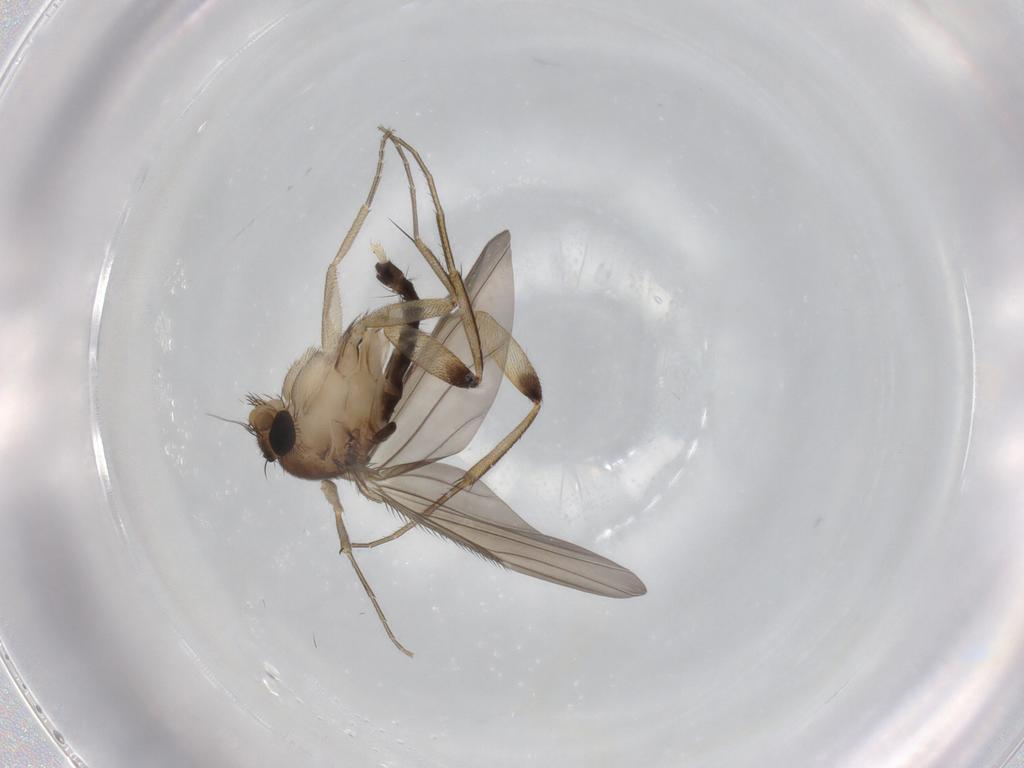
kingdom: Animalia
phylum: Arthropoda
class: Insecta
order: Diptera
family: Phoridae
